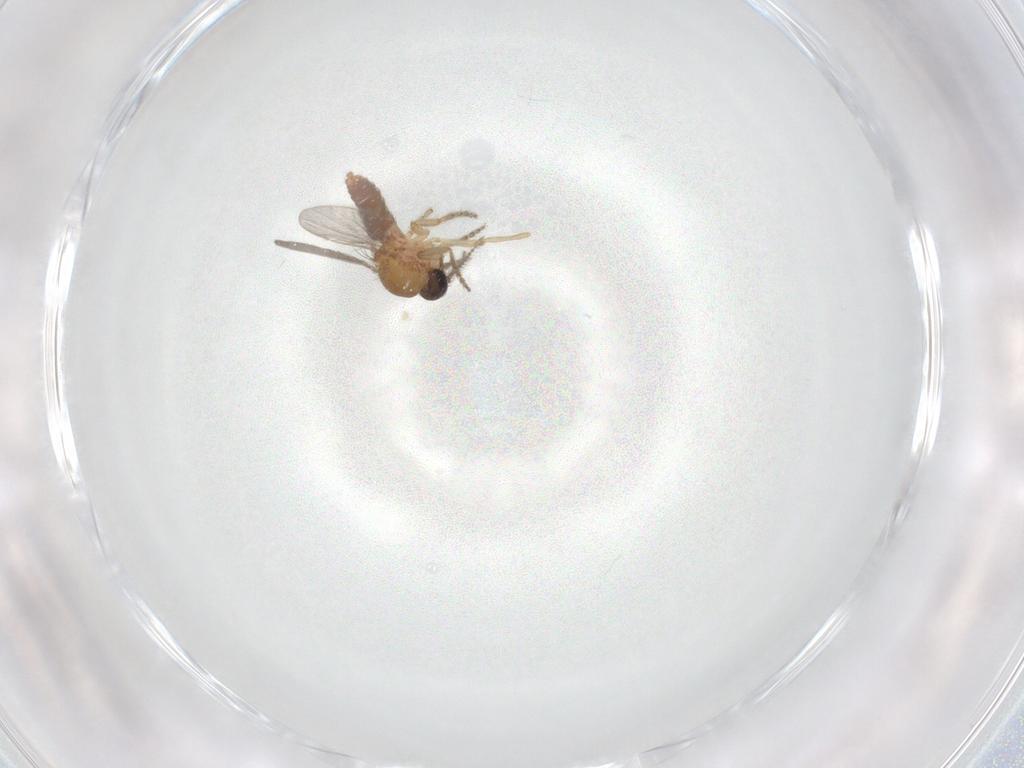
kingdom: Animalia
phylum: Arthropoda
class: Insecta
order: Diptera
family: Ceratopogonidae
